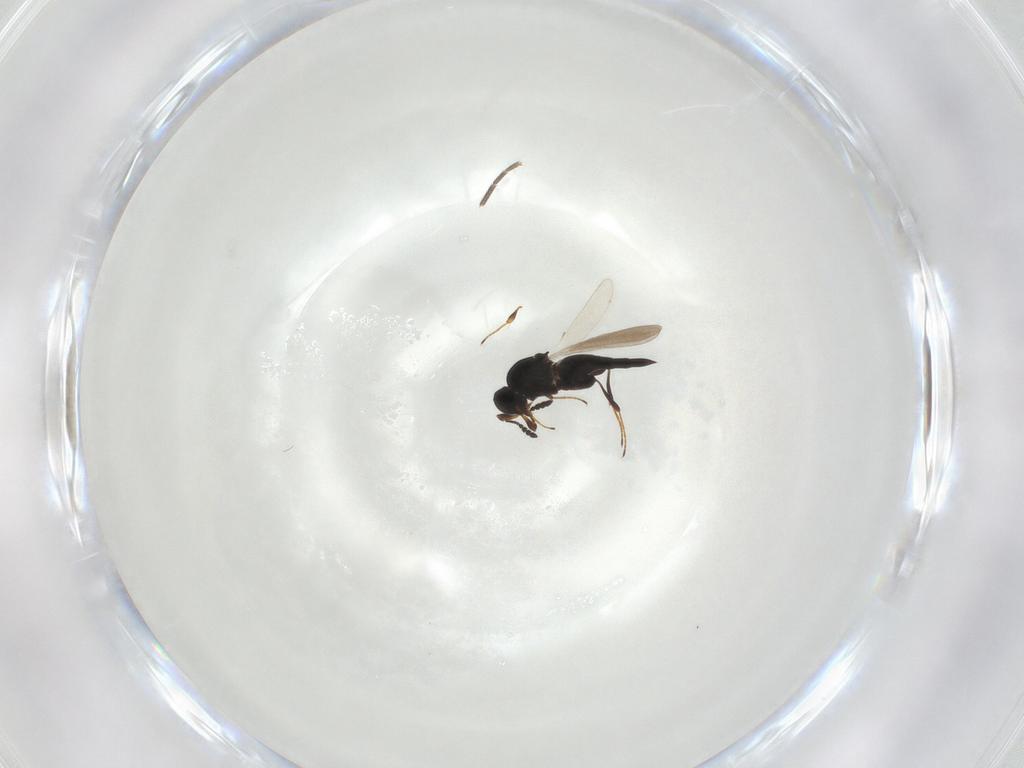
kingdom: Animalia
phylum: Arthropoda
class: Insecta
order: Hymenoptera
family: Platygastridae
